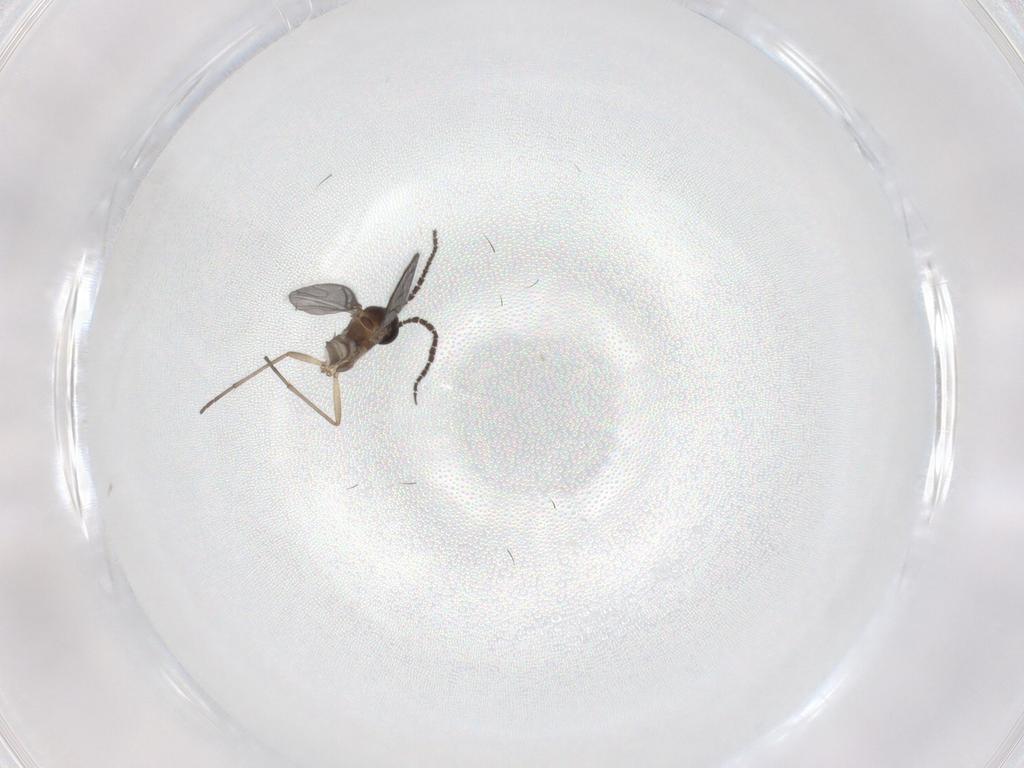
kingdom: Animalia
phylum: Arthropoda
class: Insecta
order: Diptera
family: Sciaridae
